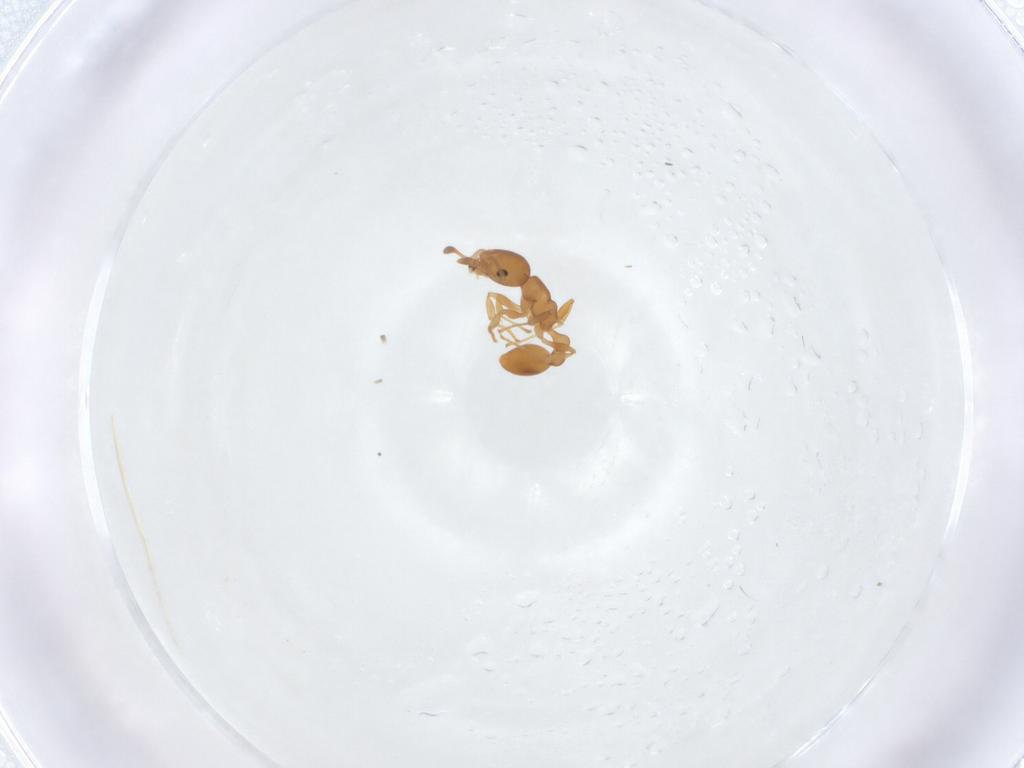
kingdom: Animalia
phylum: Arthropoda
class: Insecta
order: Hymenoptera
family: Formicidae
